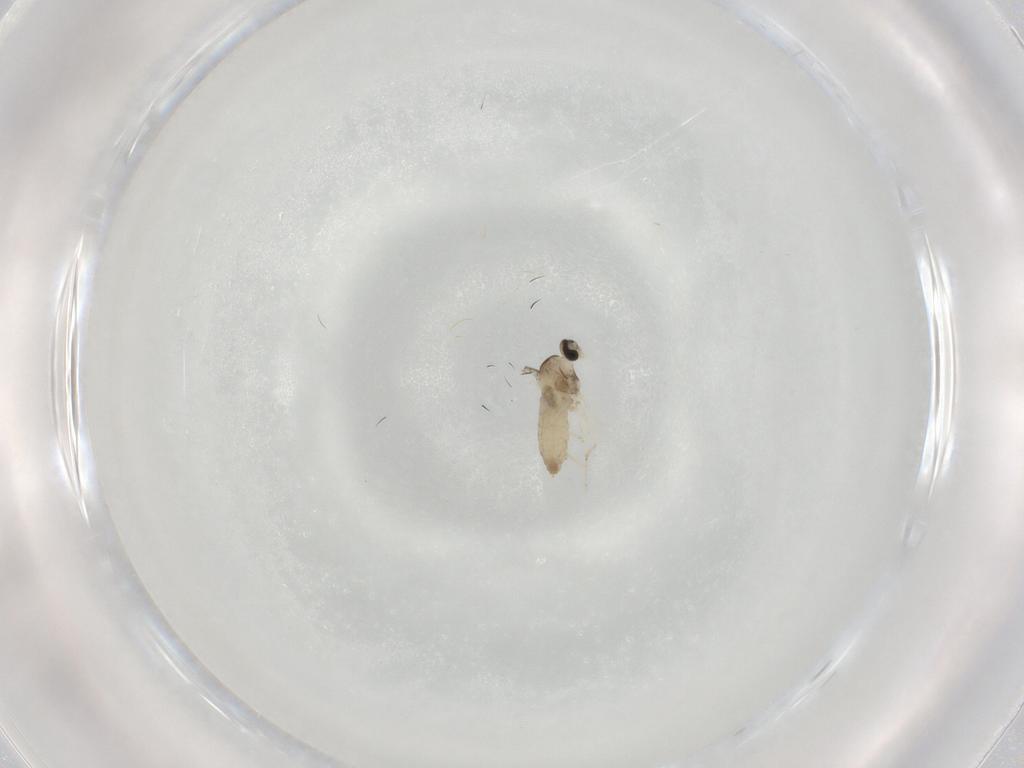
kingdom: Animalia
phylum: Arthropoda
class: Insecta
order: Diptera
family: Cecidomyiidae
